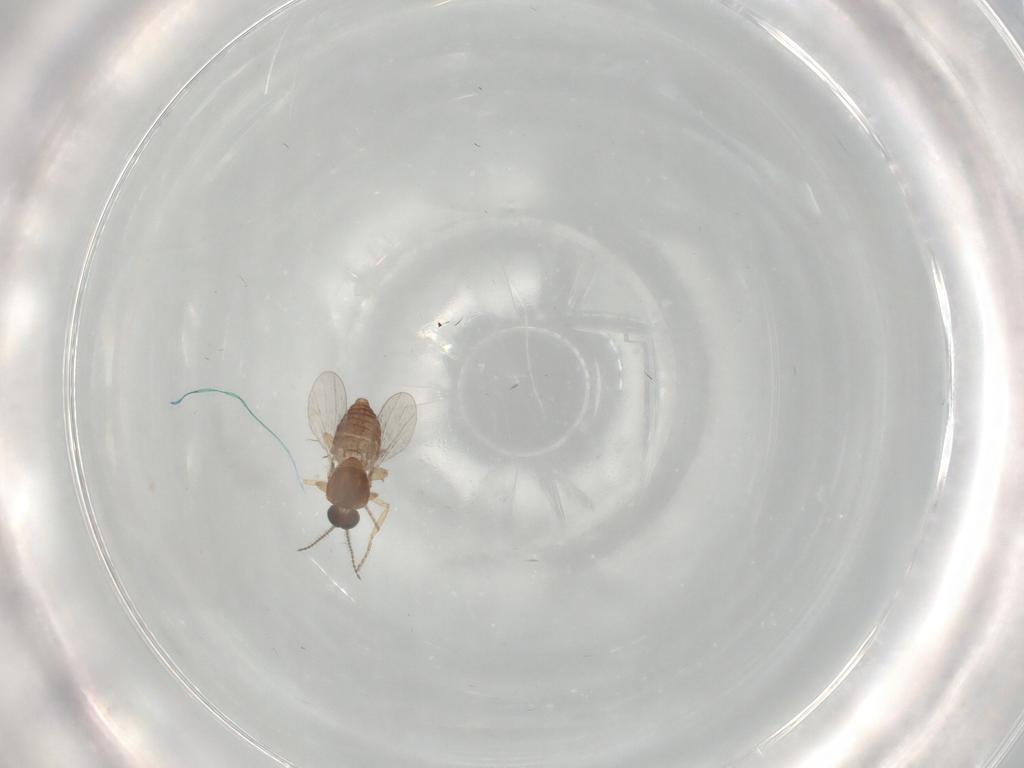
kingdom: Animalia
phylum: Arthropoda
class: Insecta
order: Diptera
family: Ceratopogonidae
